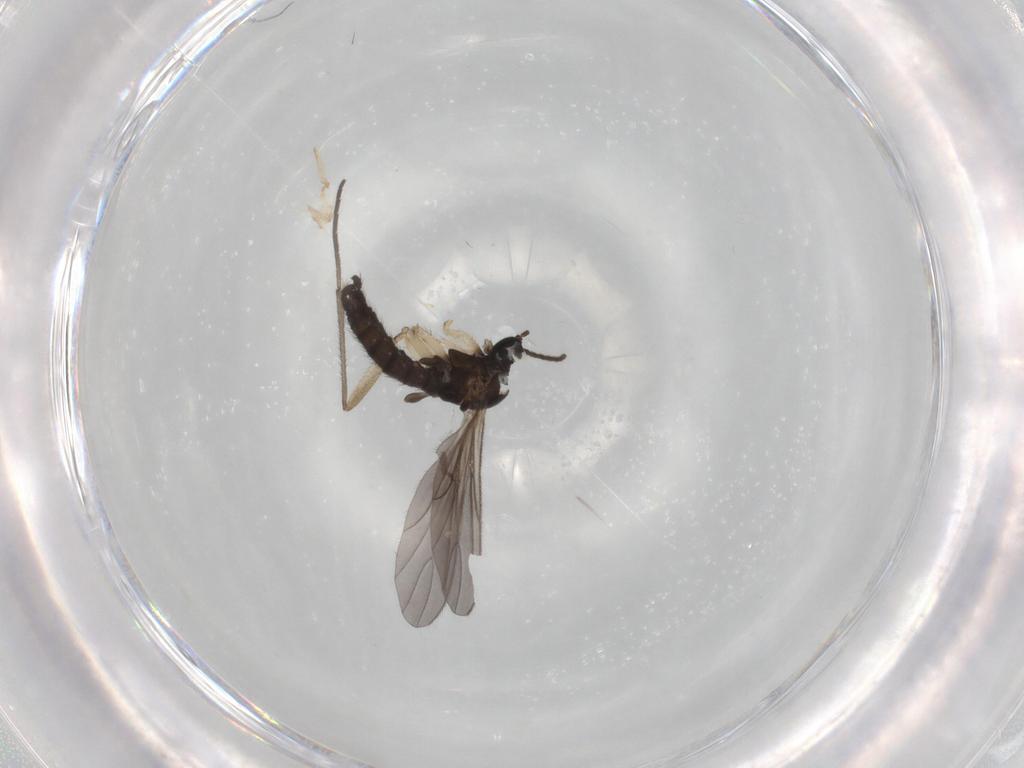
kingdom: Animalia
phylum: Arthropoda
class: Insecta
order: Diptera
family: Sciaridae
